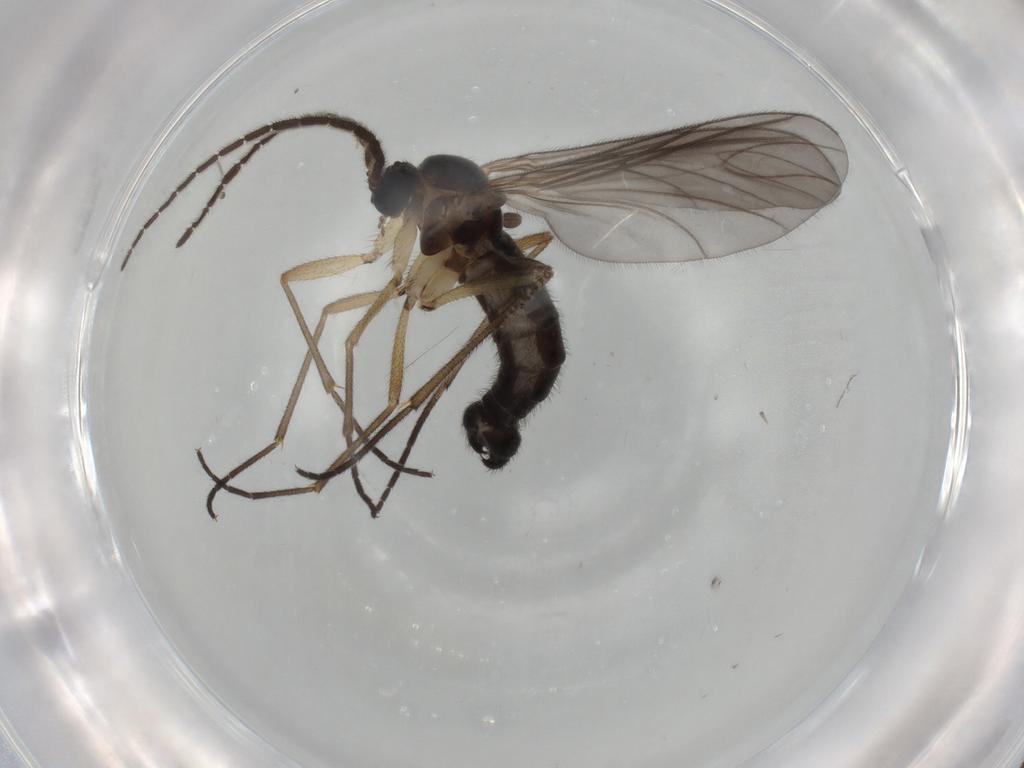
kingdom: Animalia
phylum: Arthropoda
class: Insecta
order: Diptera
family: Sciaridae
